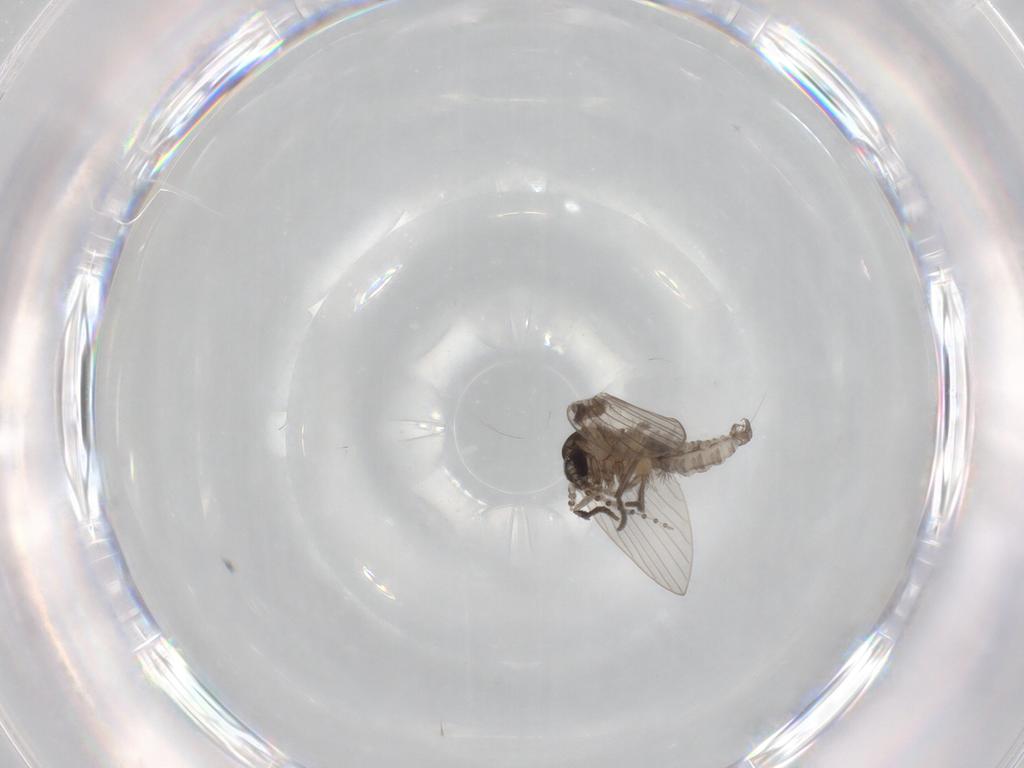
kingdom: Animalia
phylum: Arthropoda
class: Insecta
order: Diptera
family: Psychodidae
